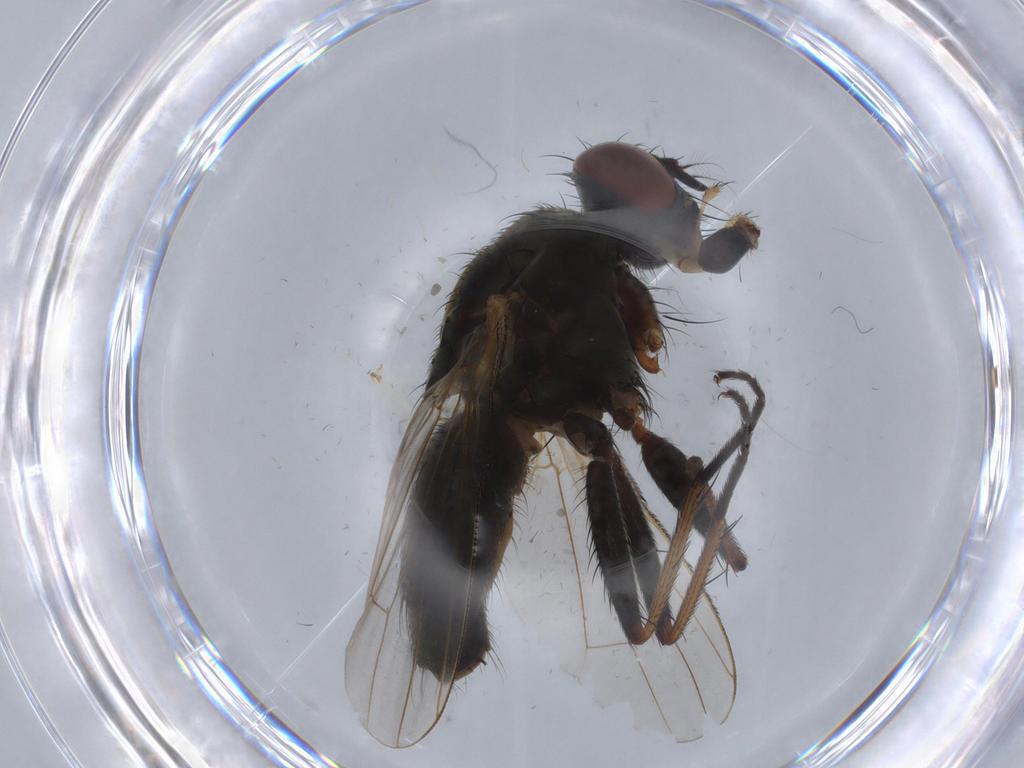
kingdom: Animalia
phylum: Arthropoda
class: Insecta
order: Diptera
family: Muscidae
